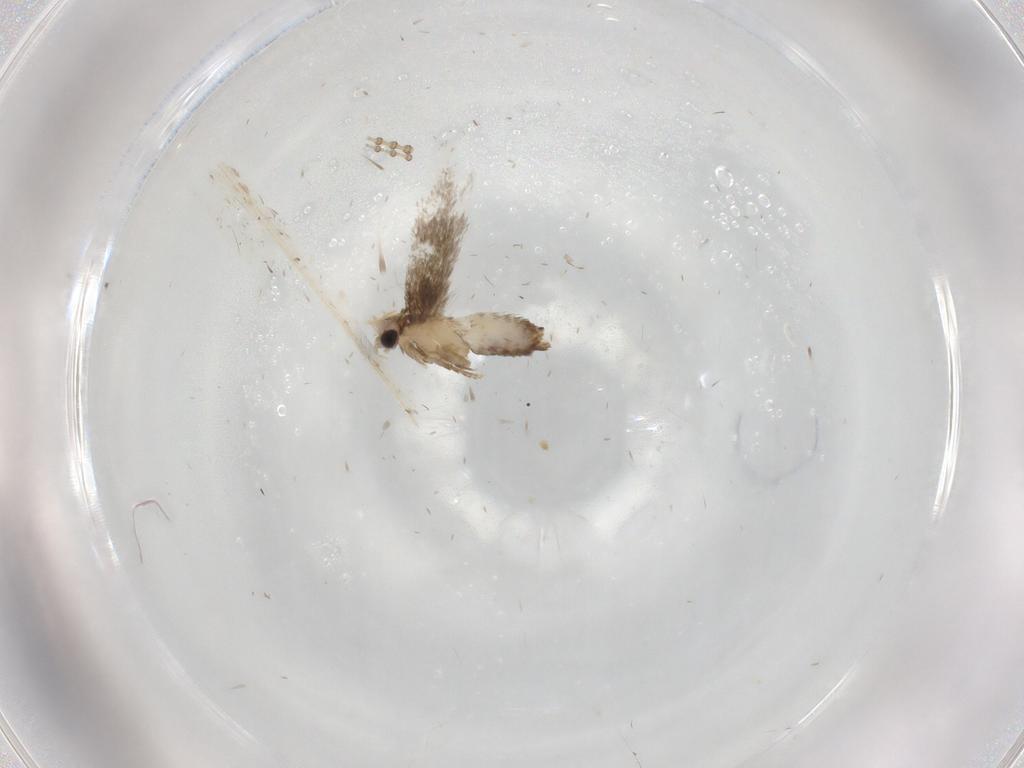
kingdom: Animalia
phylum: Arthropoda
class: Insecta
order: Lepidoptera
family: Nepticulidae
